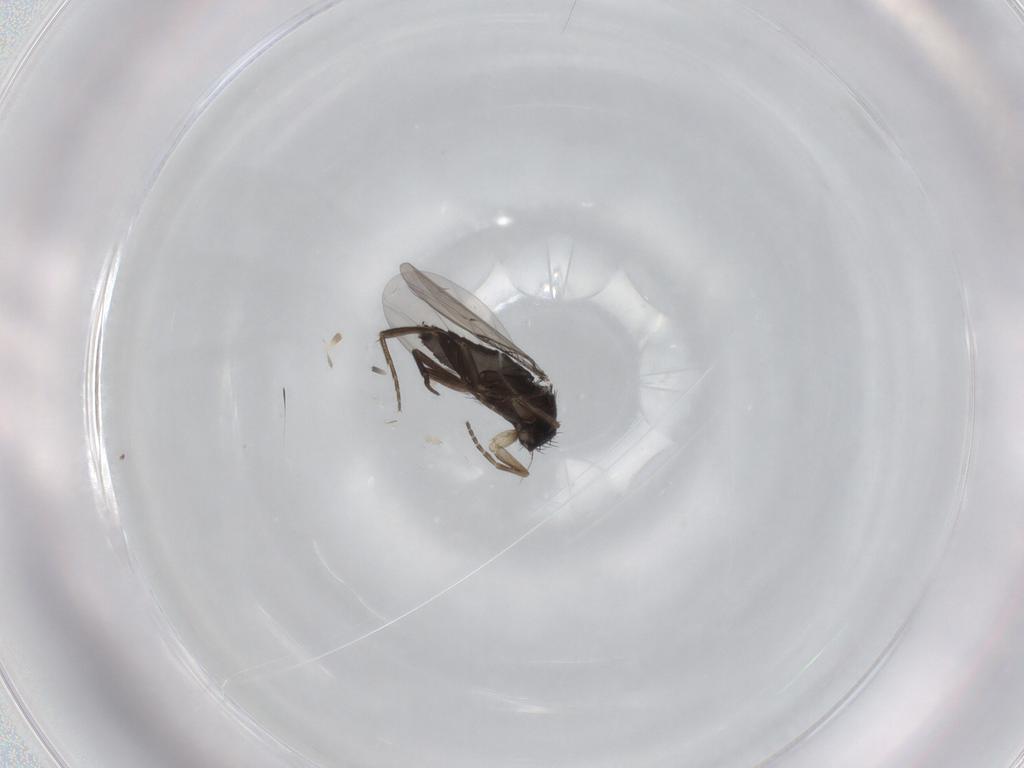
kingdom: Animalia
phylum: Arthropoda
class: Insecta
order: Diptera
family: Phoridae
